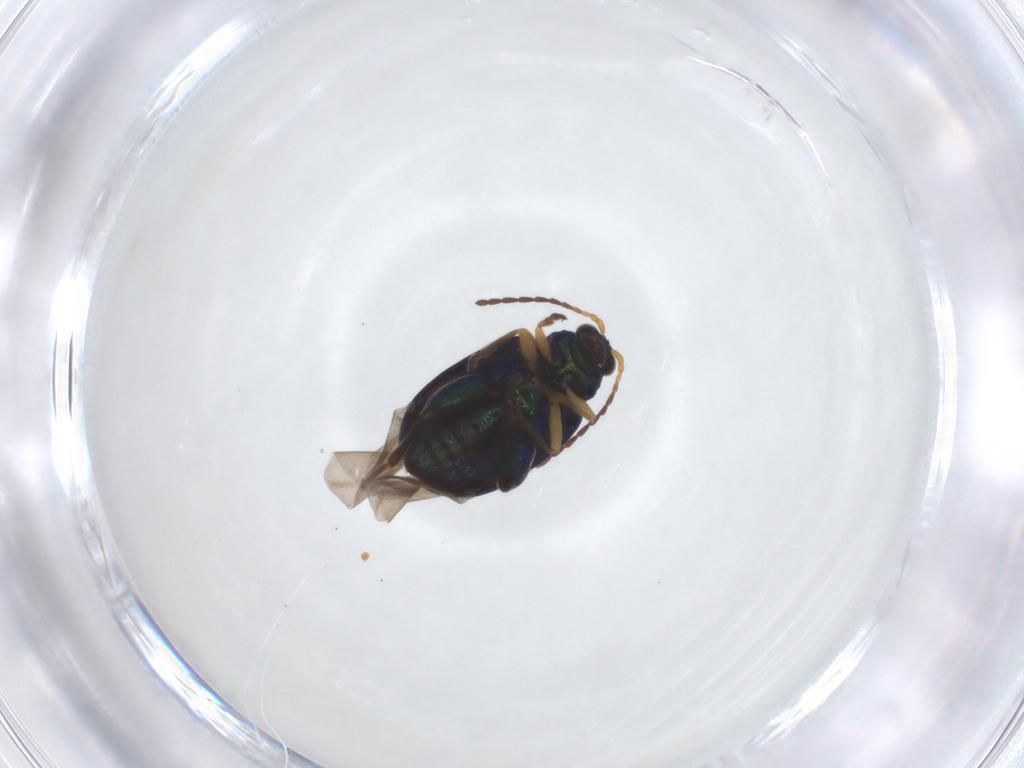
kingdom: Animalia
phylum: Arthropoda
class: Insecta
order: Coleoptera
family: Chrysomelidae
